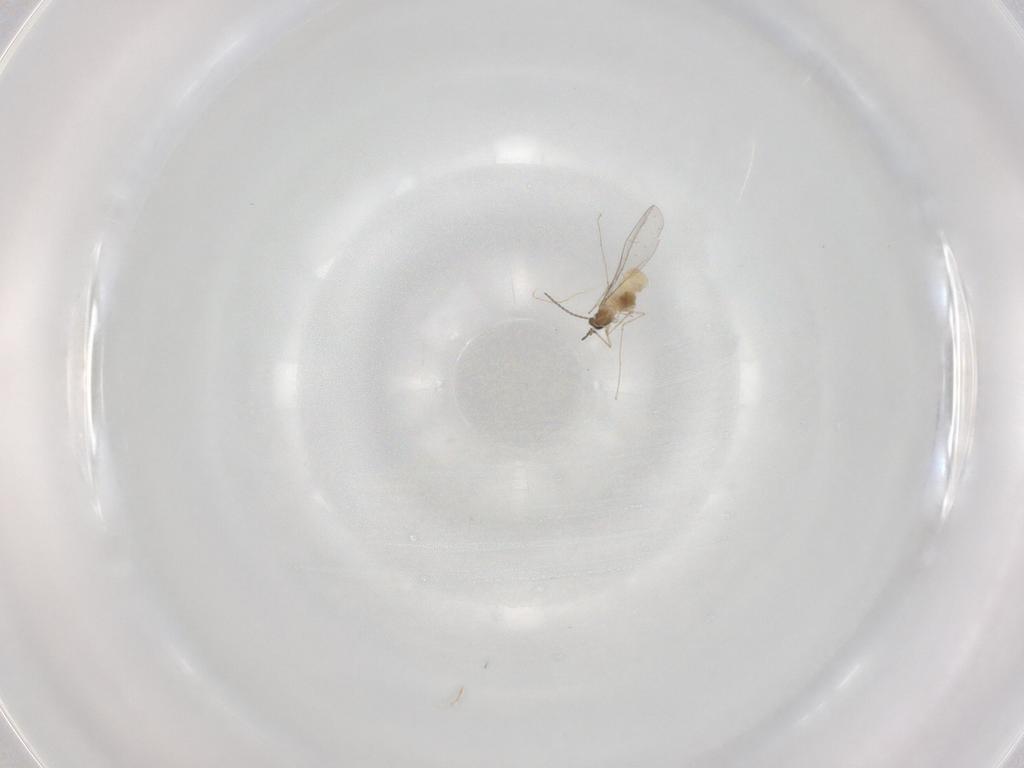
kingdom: Animalia
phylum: Arthropoda
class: Insecta
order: Diptera
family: Cecidomyiidae
